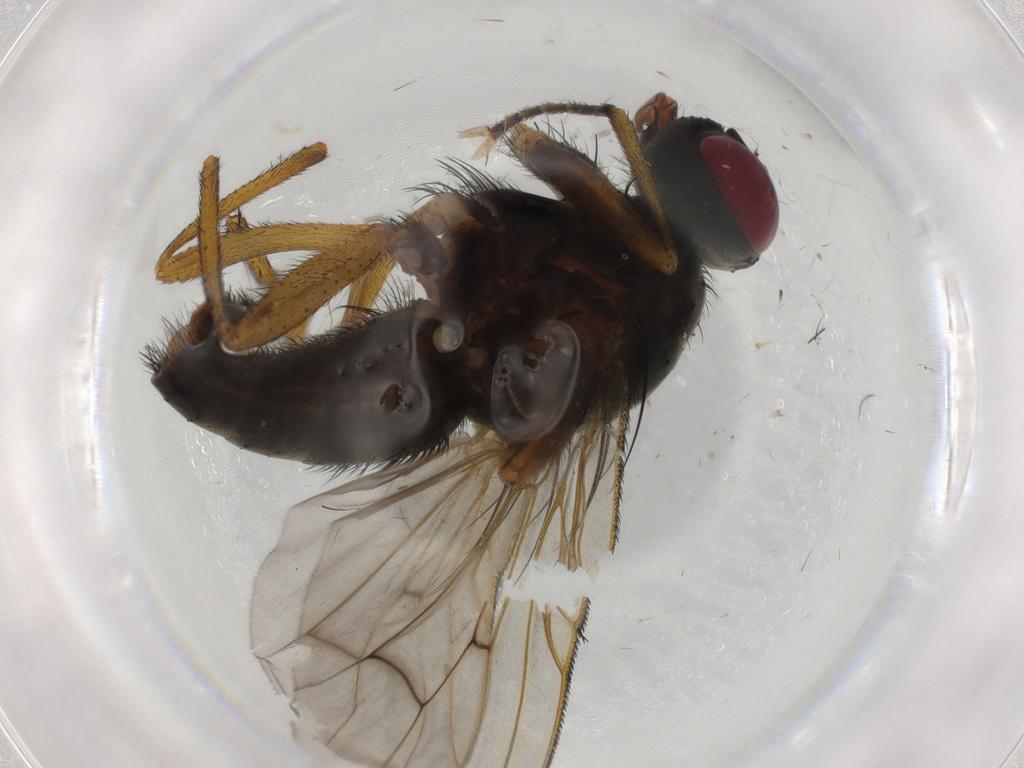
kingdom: Animalia
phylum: Arthropoda
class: Insecta
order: Diptera
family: Muscidae
